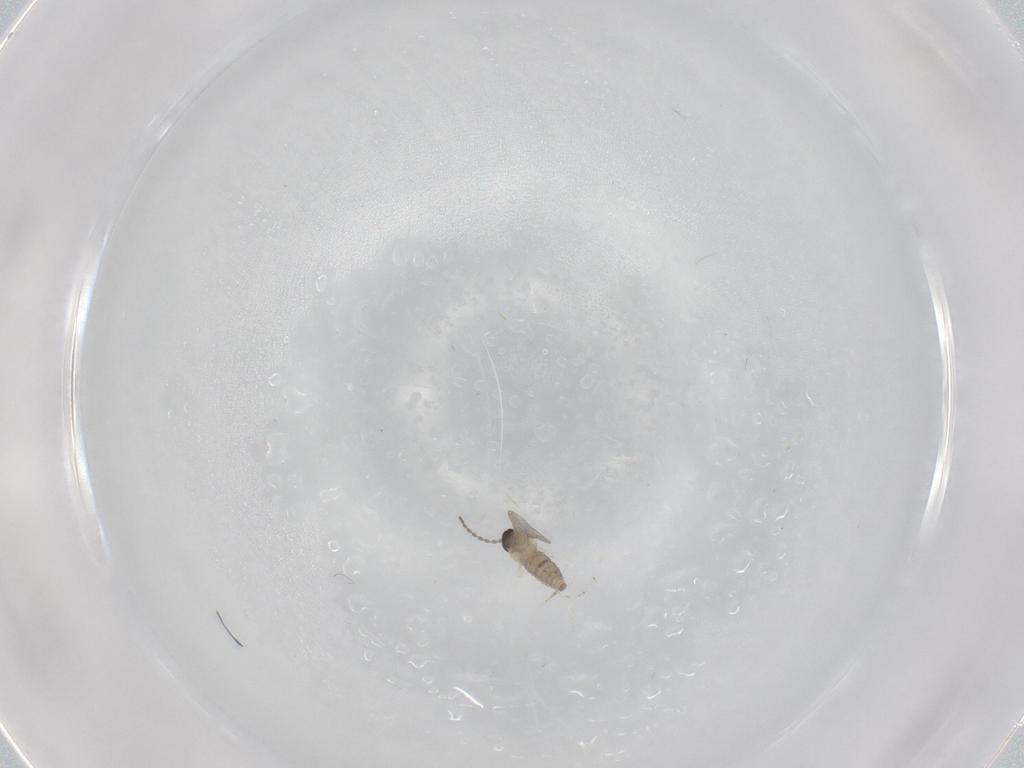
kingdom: Animalia
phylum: Arthropoda
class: Insecta
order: Diptera
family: Cecidomyiidae
